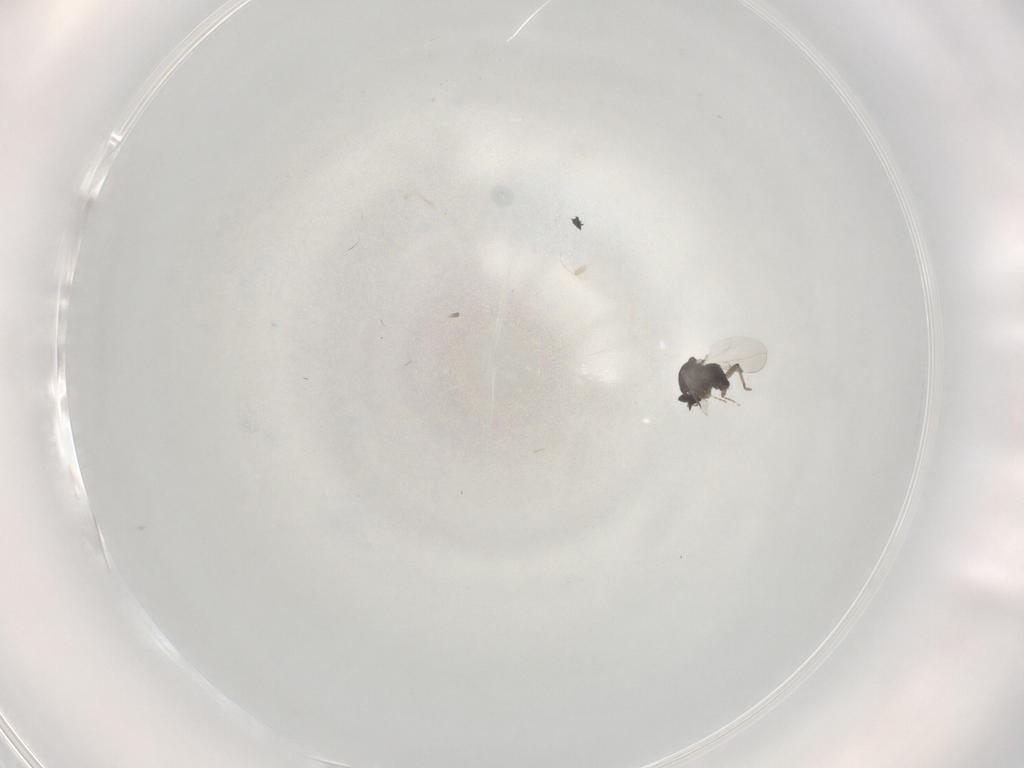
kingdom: Animalia
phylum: Arthropoda
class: Insecta
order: Diptera
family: Ceratopogonidae
